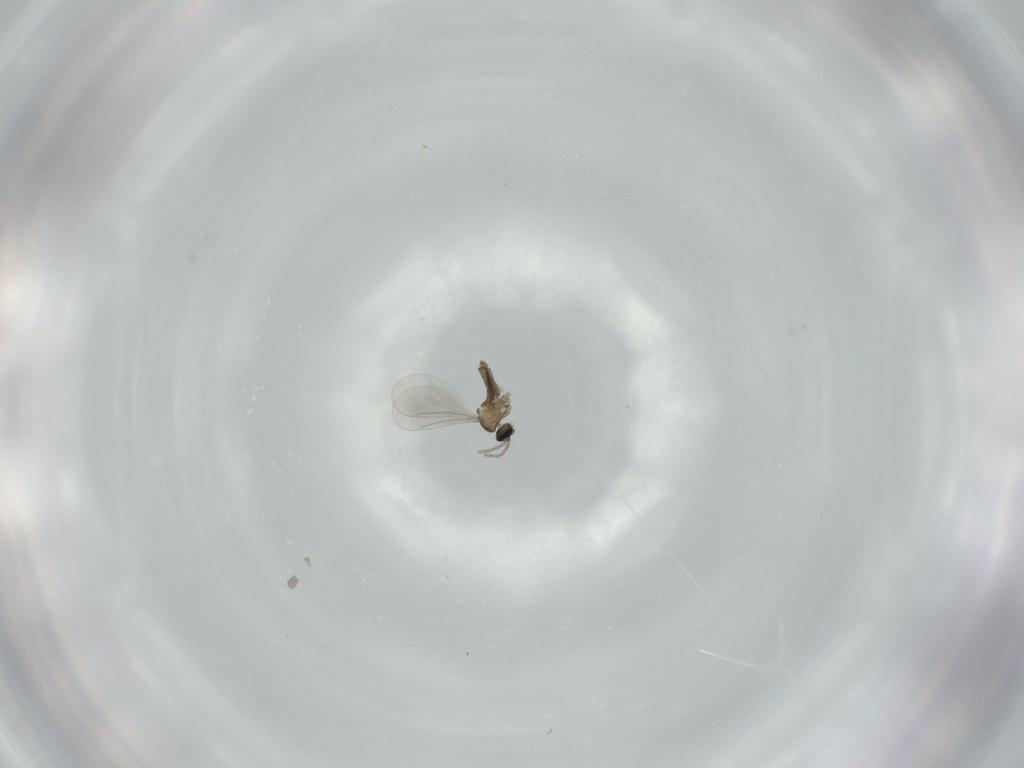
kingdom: Animalia
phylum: Arthropoda
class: Insecta
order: Diptera
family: Cecidomyiidae
